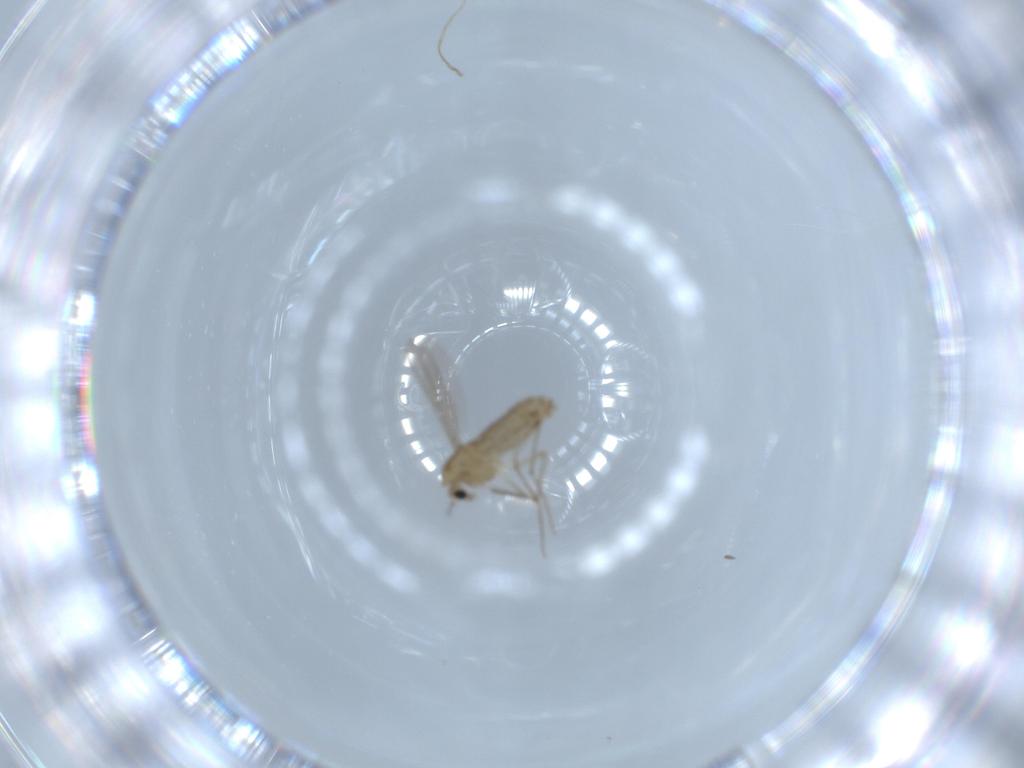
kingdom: Animalia
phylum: Arthropoda
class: Insecta
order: Diptera
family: Chironomidae
